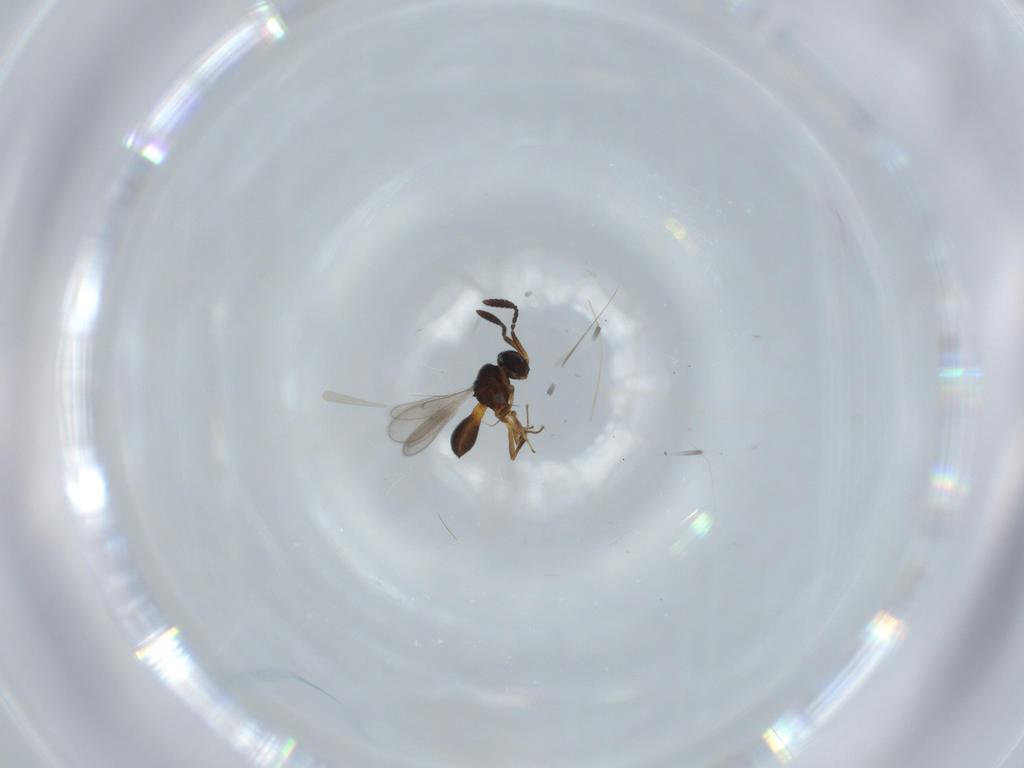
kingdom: Animalia
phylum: Arthropoda
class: Insecta
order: Hymenoptera
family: Scelionidae
